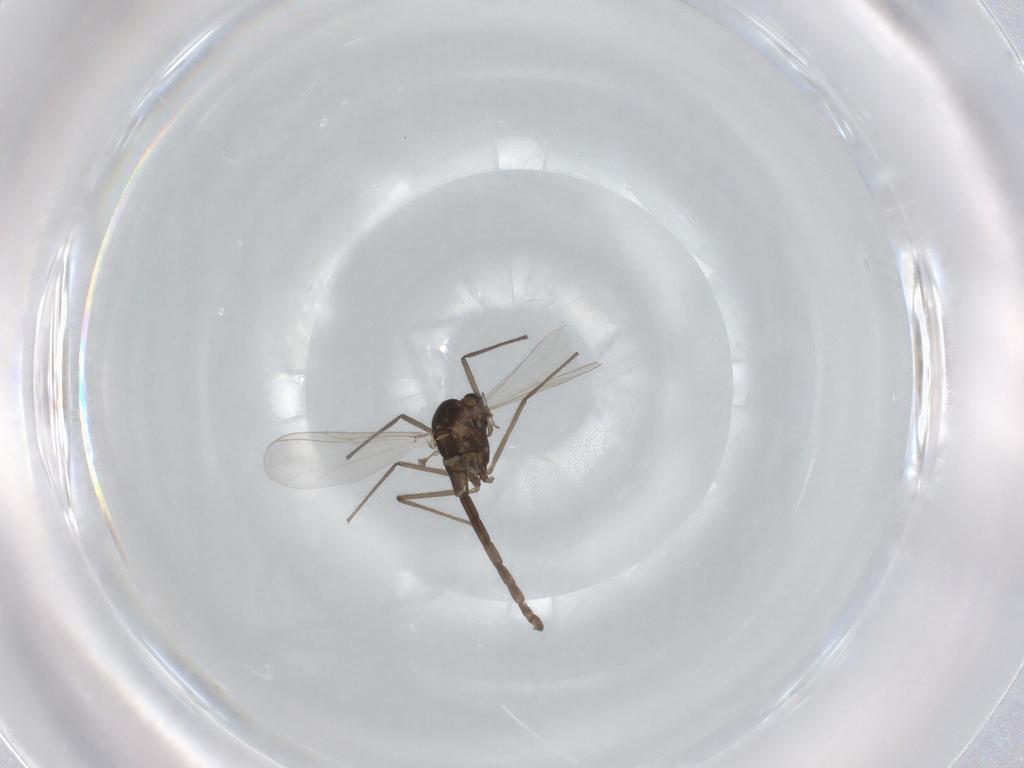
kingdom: Animalia
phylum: Arthropoda
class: Insecta
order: Diptera
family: Chironomidae
